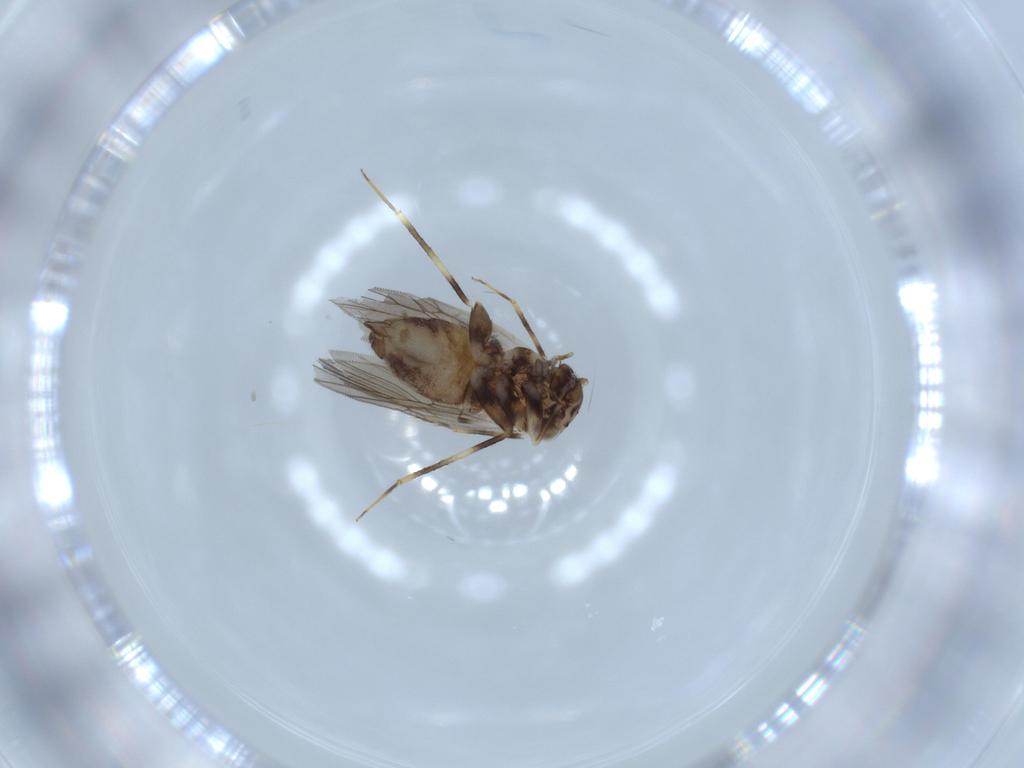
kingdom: Animalia
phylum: Arthropoda
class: Insecta
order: Psocodea
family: Lepidopsocidae
